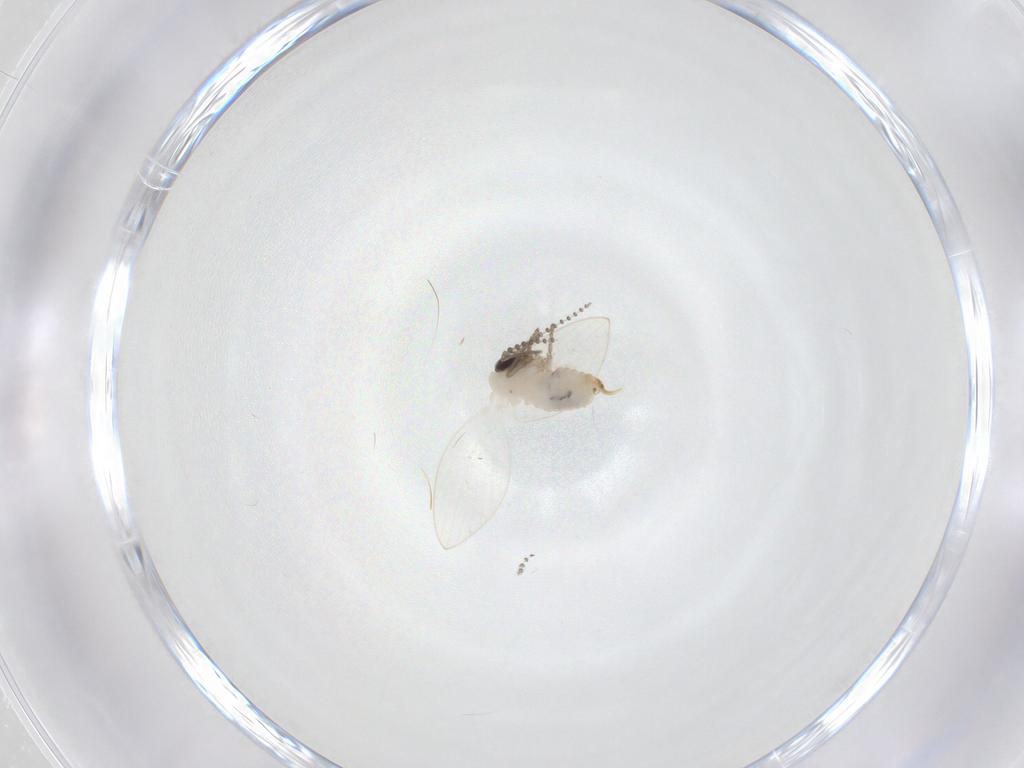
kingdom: Animalia
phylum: Arthropoda
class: Insecta
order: Diptera
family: Psychodidae
